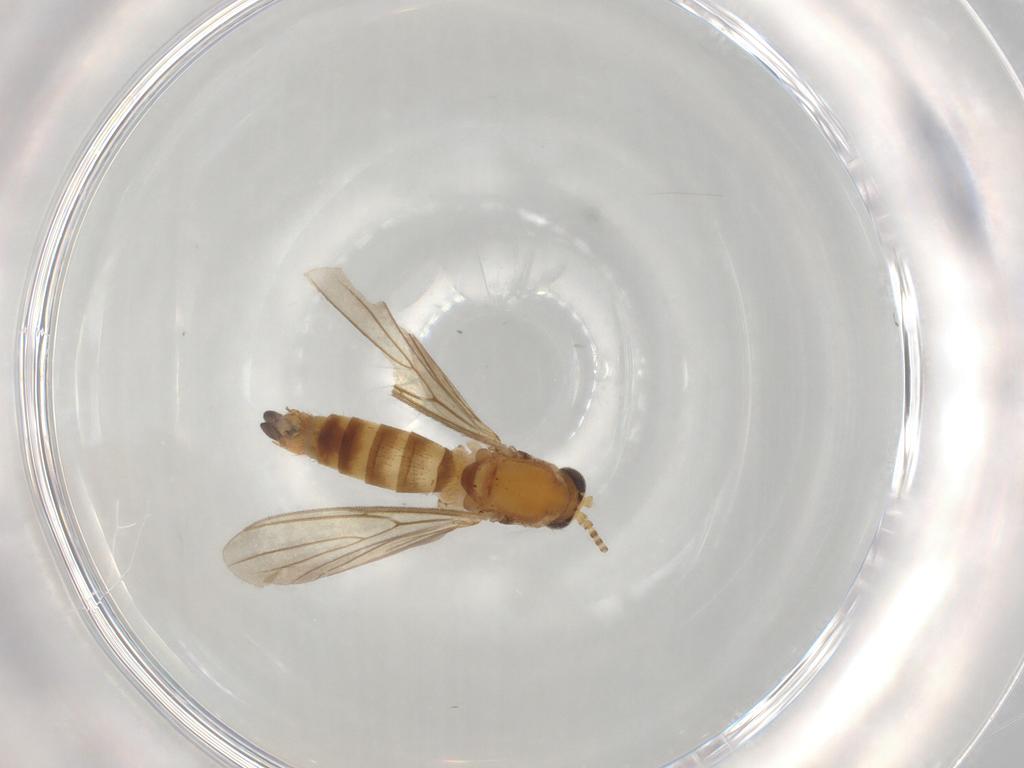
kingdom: Animalia
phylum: Arthropoda
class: Insecta
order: Diptera
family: Mycetophilidae
